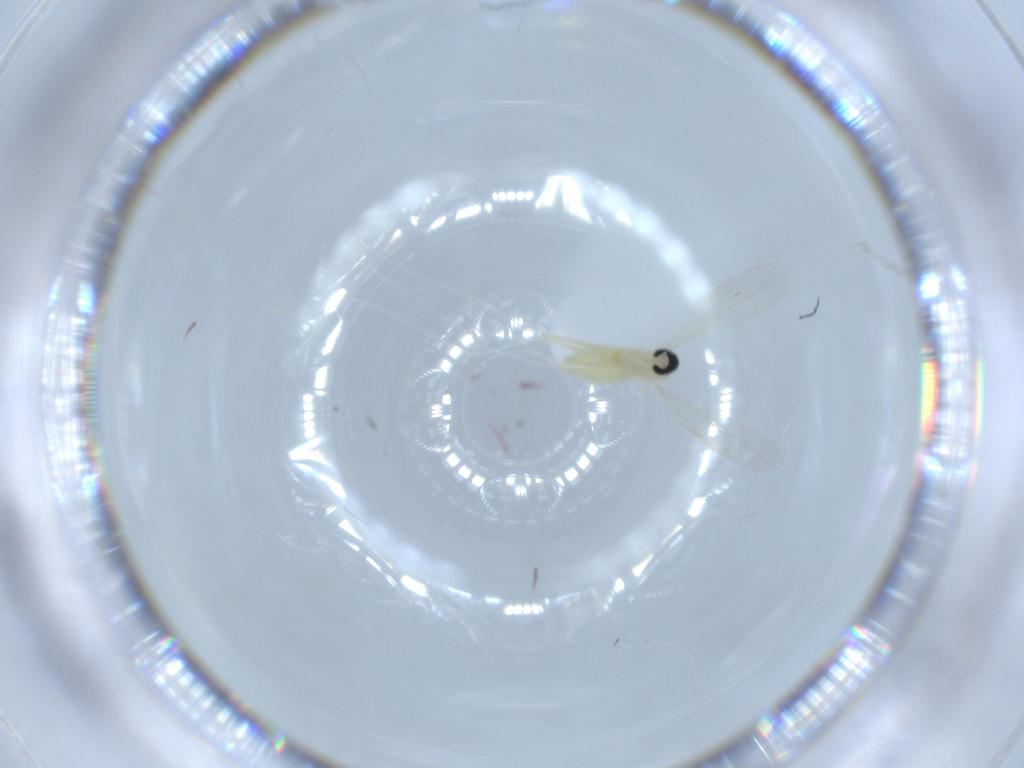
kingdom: Animalia
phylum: Arthropoda
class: Insecta
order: Diptera
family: Cecidomyiidae
